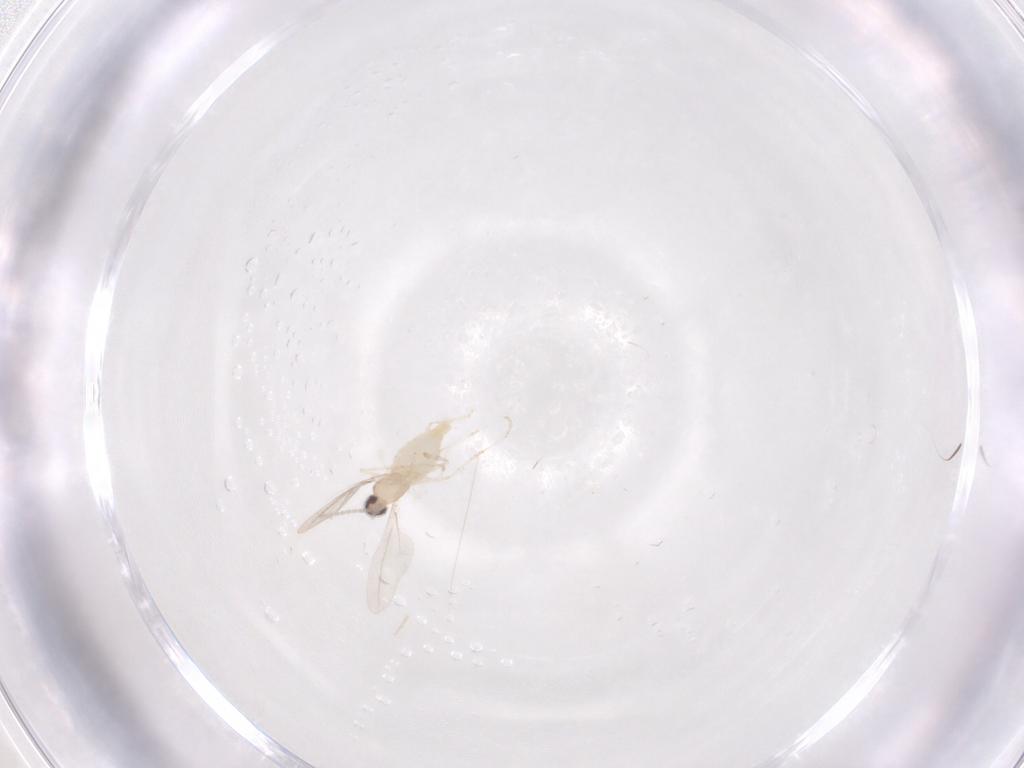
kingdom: Animalia
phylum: Arthropoda
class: Insecta
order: Diptera
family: Cecidomyiidae
